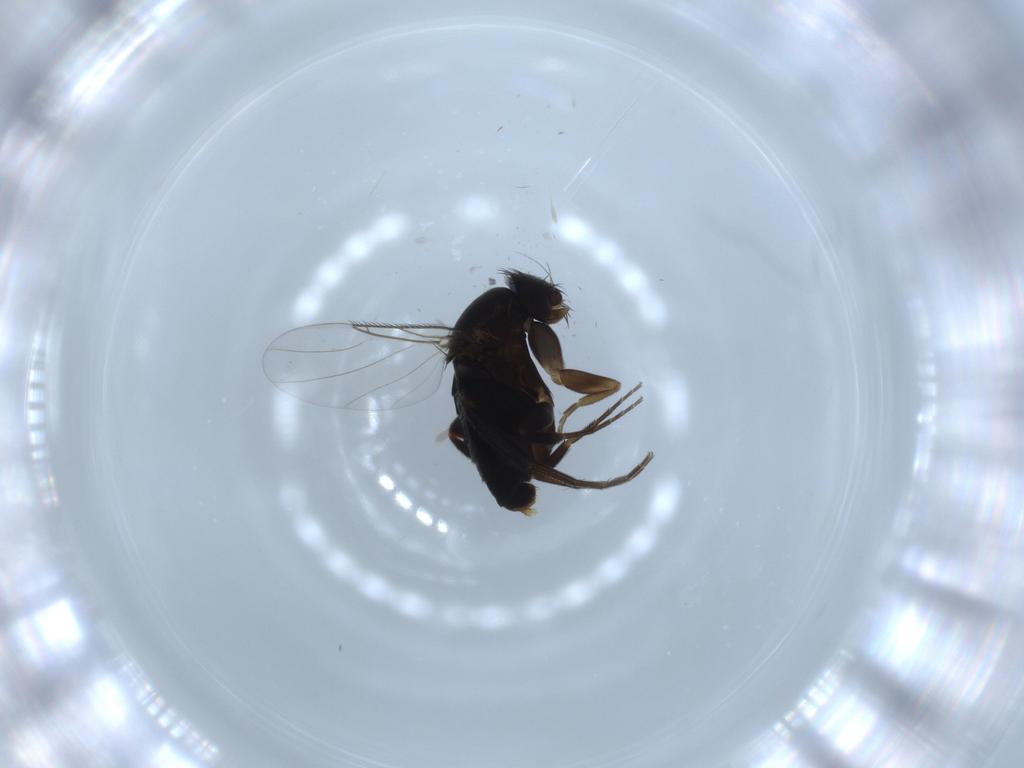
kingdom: Animalia
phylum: Arthropoda
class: Insecta
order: Diptera
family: Phoridae
